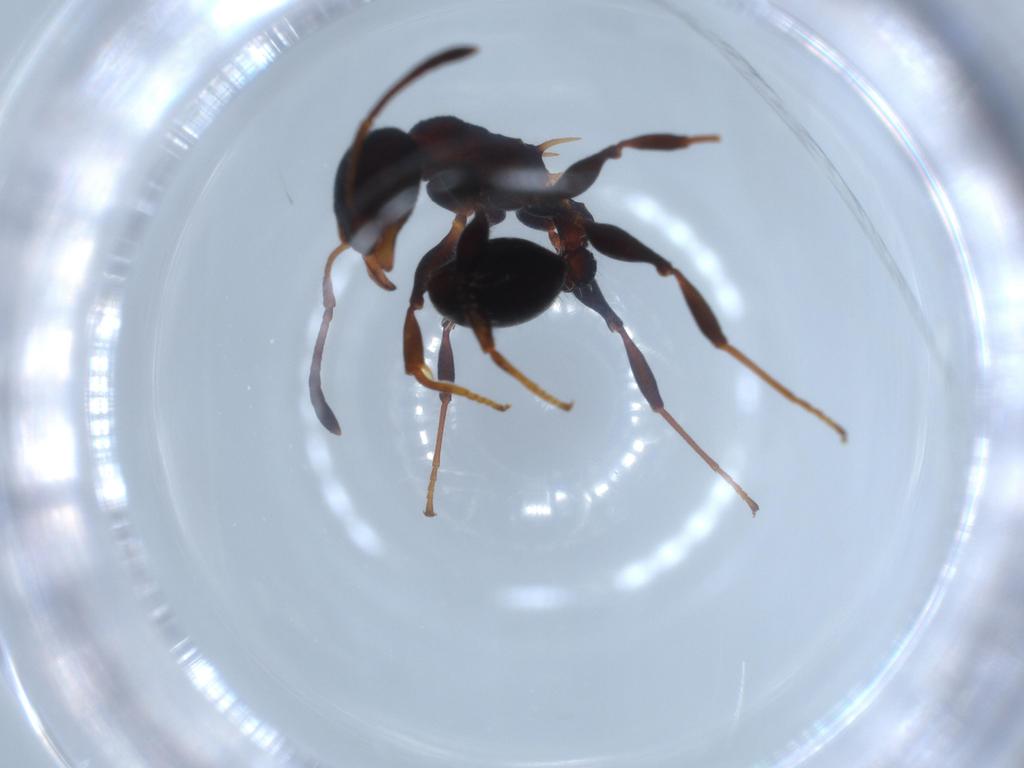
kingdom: Animalia
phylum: Arthropoda
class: Insecta
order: Hymenoptera
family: Formicidae
